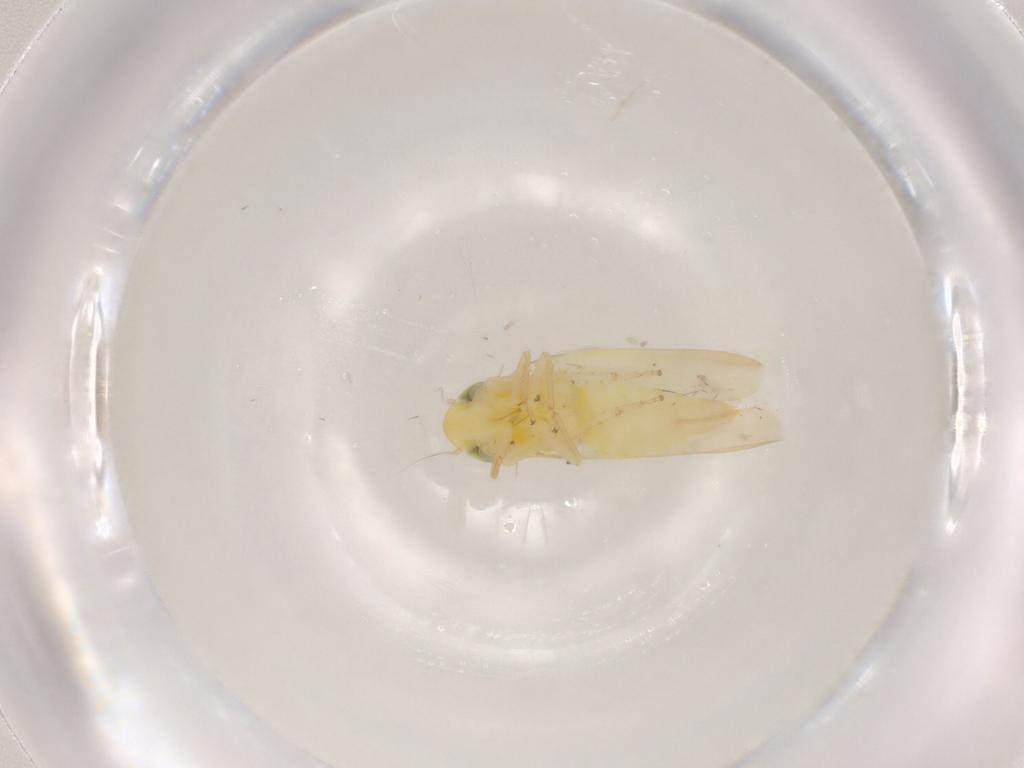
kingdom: Animalia
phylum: Arthropoda
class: Insecta
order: Hemiptera
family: Cicadellidae
